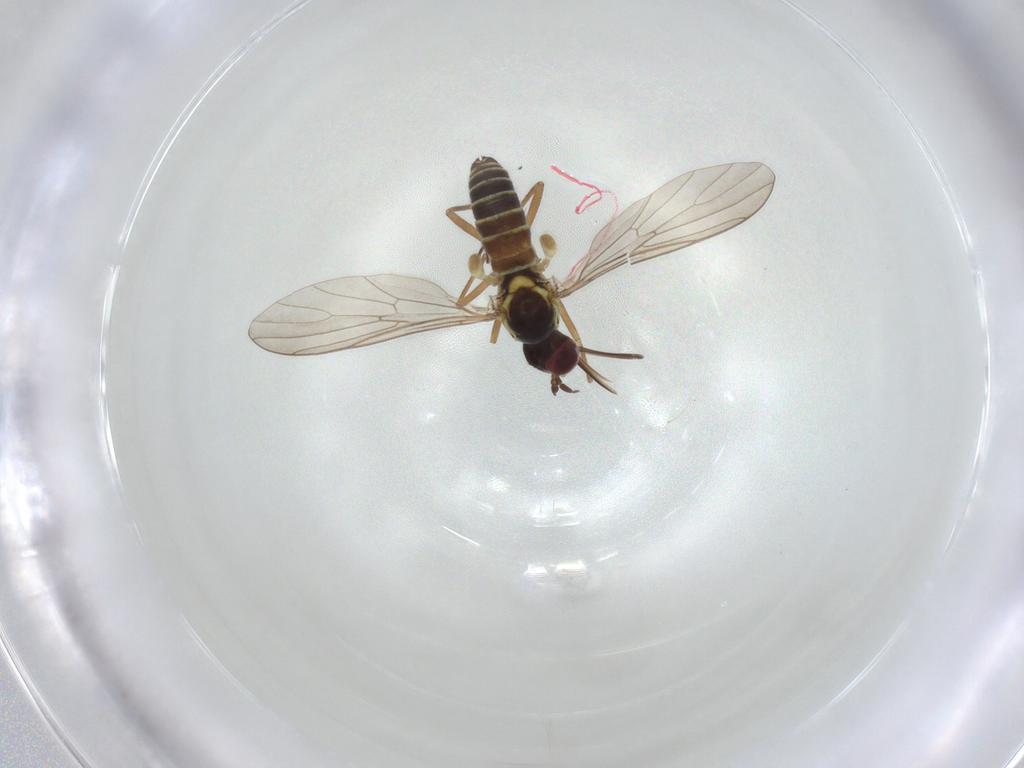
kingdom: Animalia
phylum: Arthropoda
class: Insecta
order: Diptera
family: Mythicomyiidae
